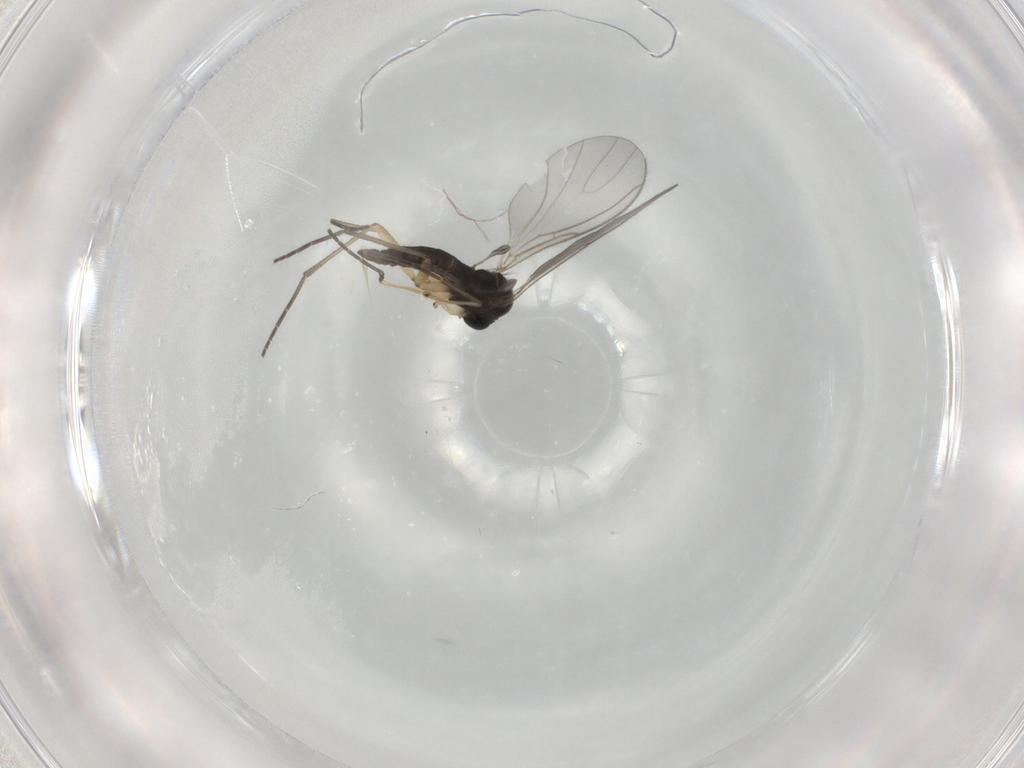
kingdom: Animalia
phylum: Arthropoda
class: Insecta
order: Diptera
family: Sciaridae
